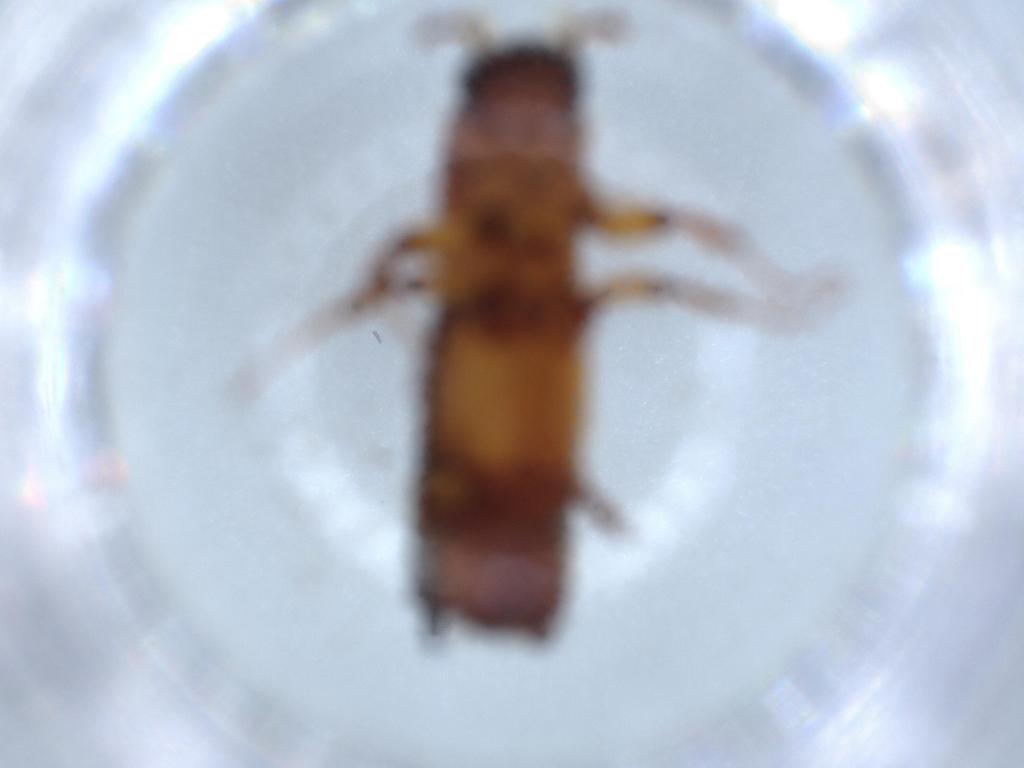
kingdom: Animalia
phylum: Arthropoda
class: Insecta
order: Coleoptera
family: Curculionidae
